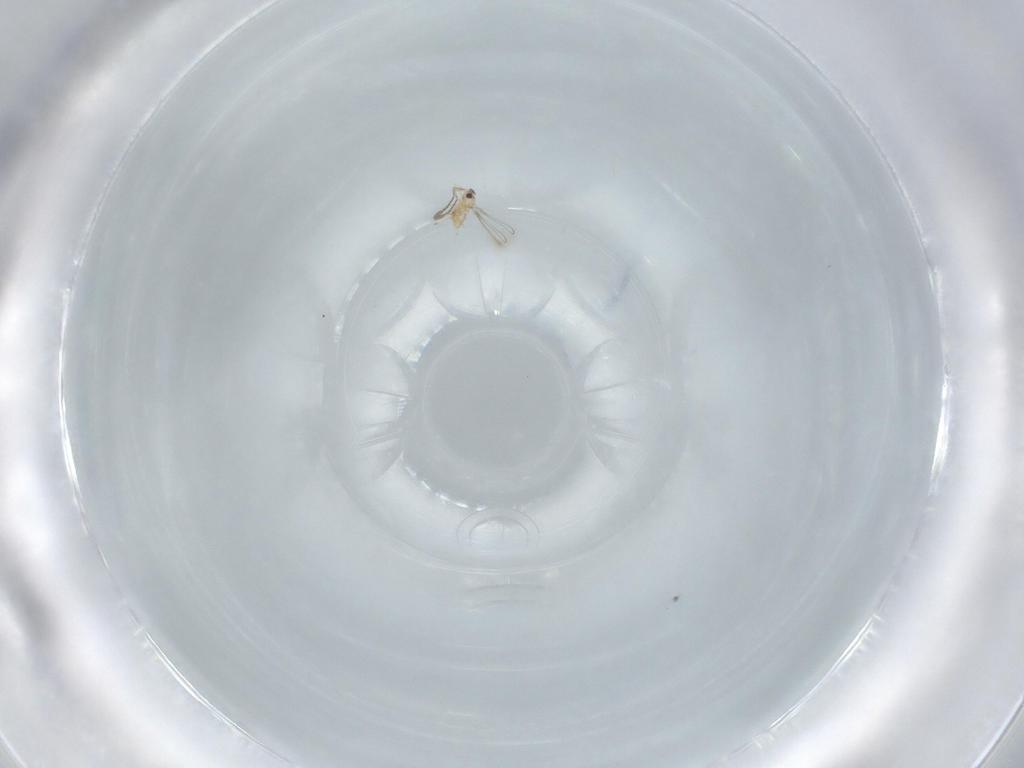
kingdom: Animalia
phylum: Arthropoda
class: Insecta
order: Hymenoptera
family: Mymaridae
